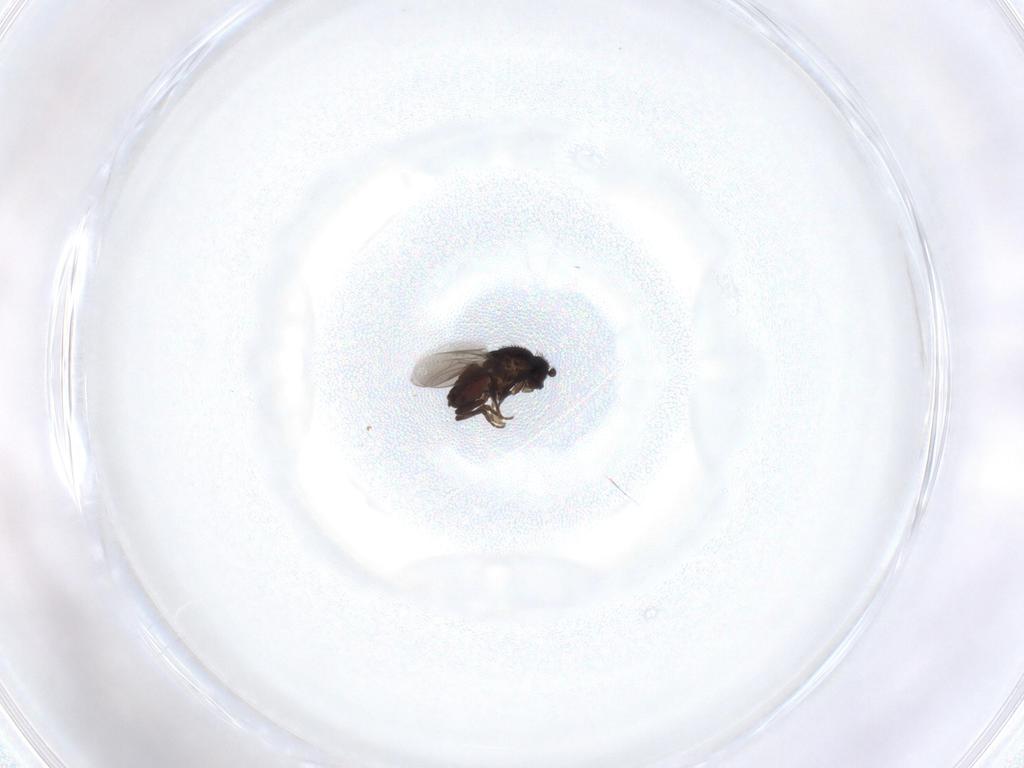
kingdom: Animalia
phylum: Arthropoda
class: Insecta
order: Diptera
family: Sphaeroceridae
